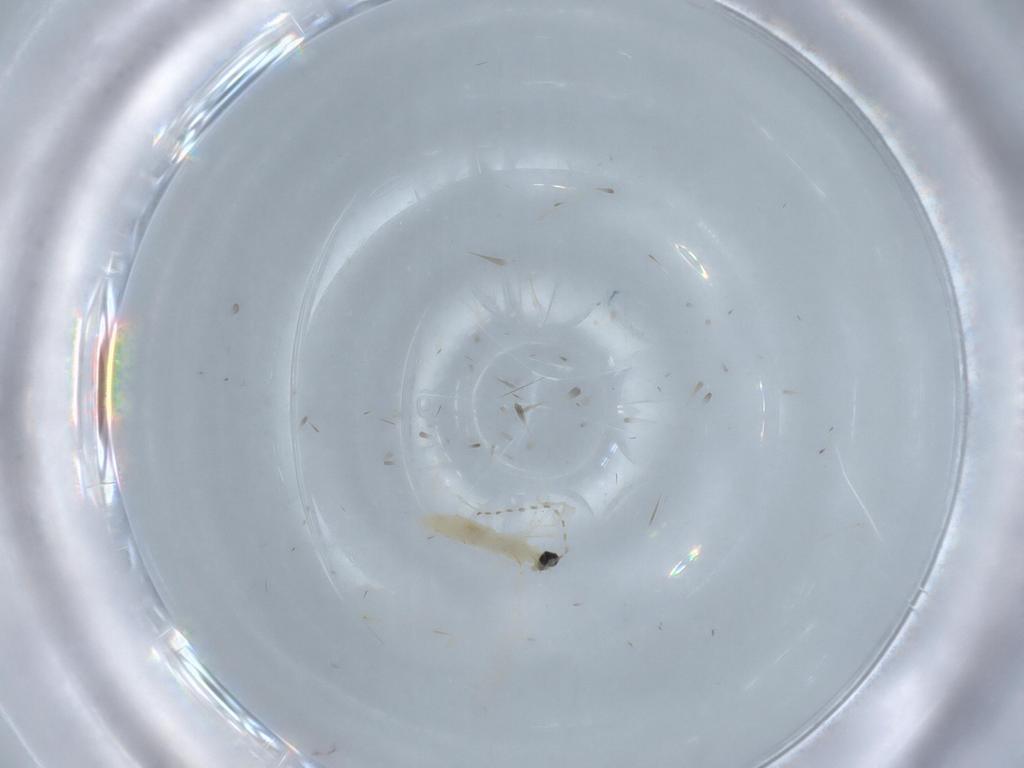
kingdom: Animalia
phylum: Arthropoda
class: Insecta
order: Diptera
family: Cecidomyiidae
